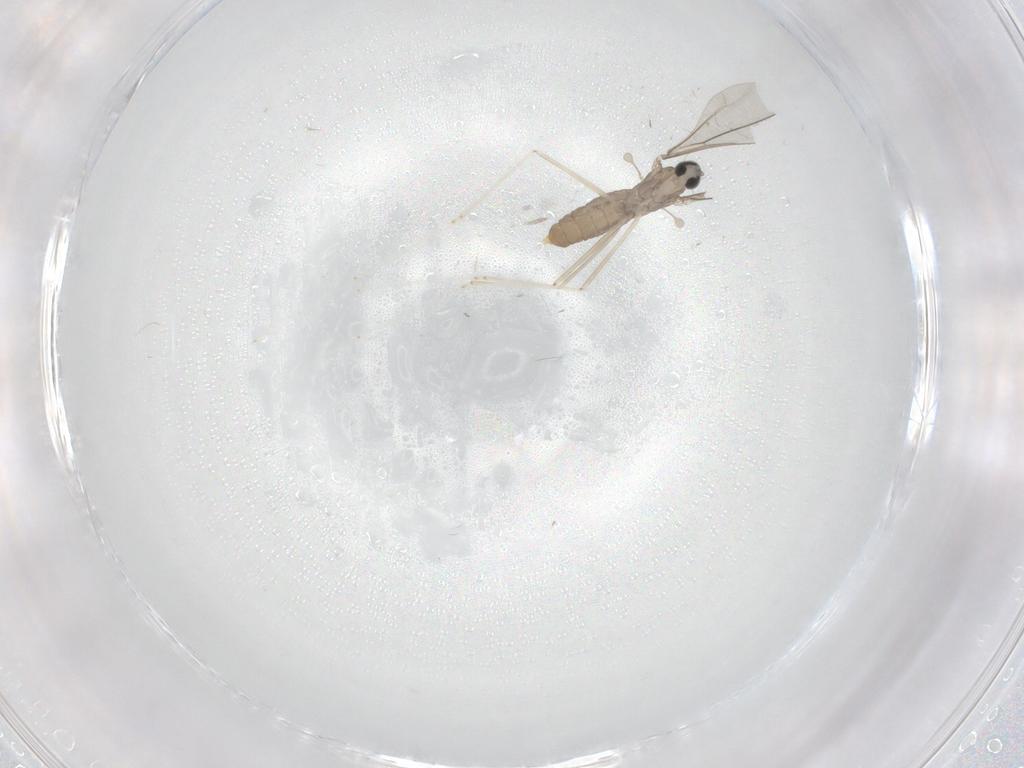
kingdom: Animalia
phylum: Arthropoda
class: Insecta
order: Diptera
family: Cecidomyiidae
